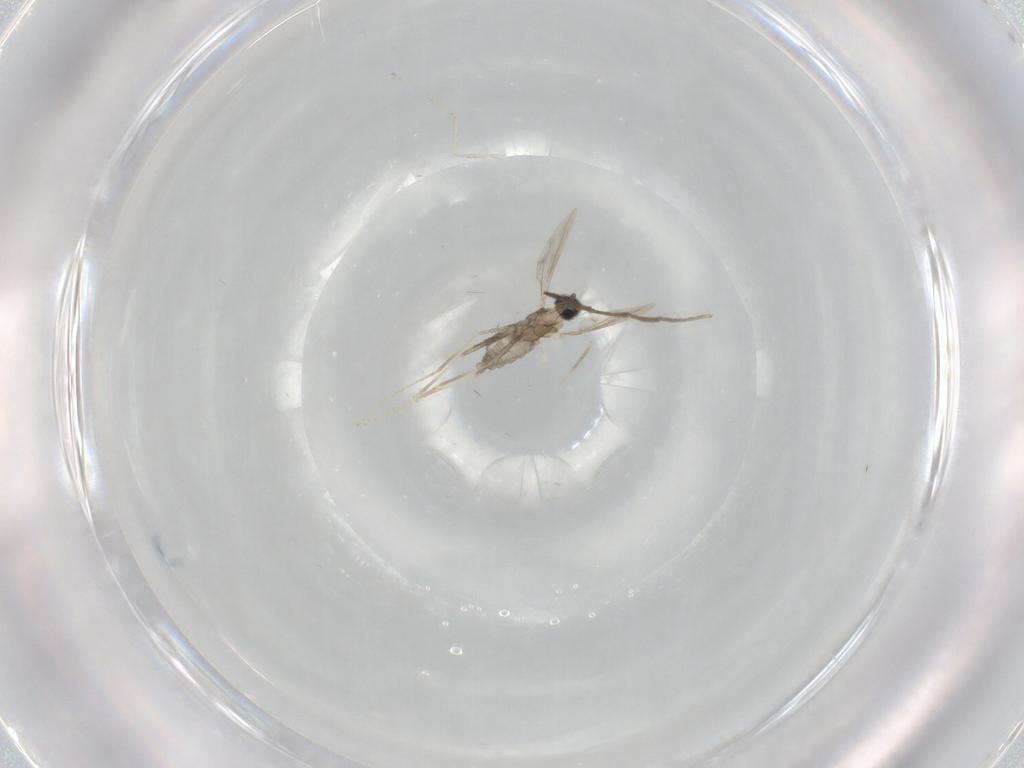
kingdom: Animalia
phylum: Arthropoda
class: Insecta
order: Diptera
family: Cecidomyiidae
